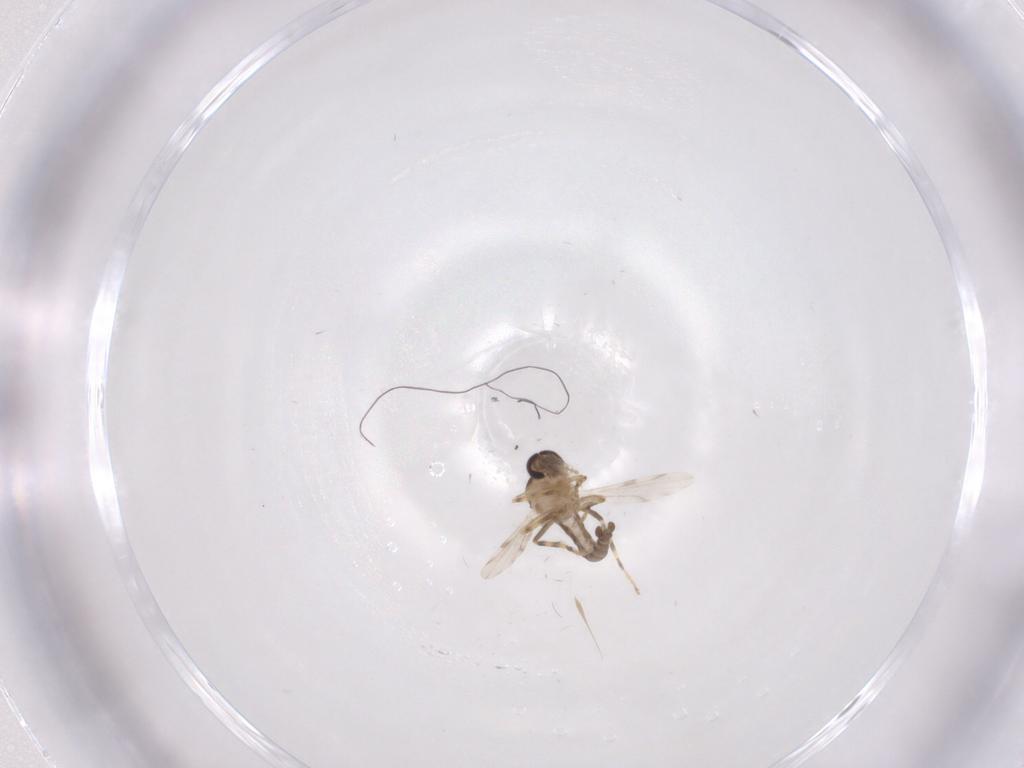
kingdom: Animalia
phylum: Arthropoda
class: Insecta
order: Diptera
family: Ceratopogonidae
